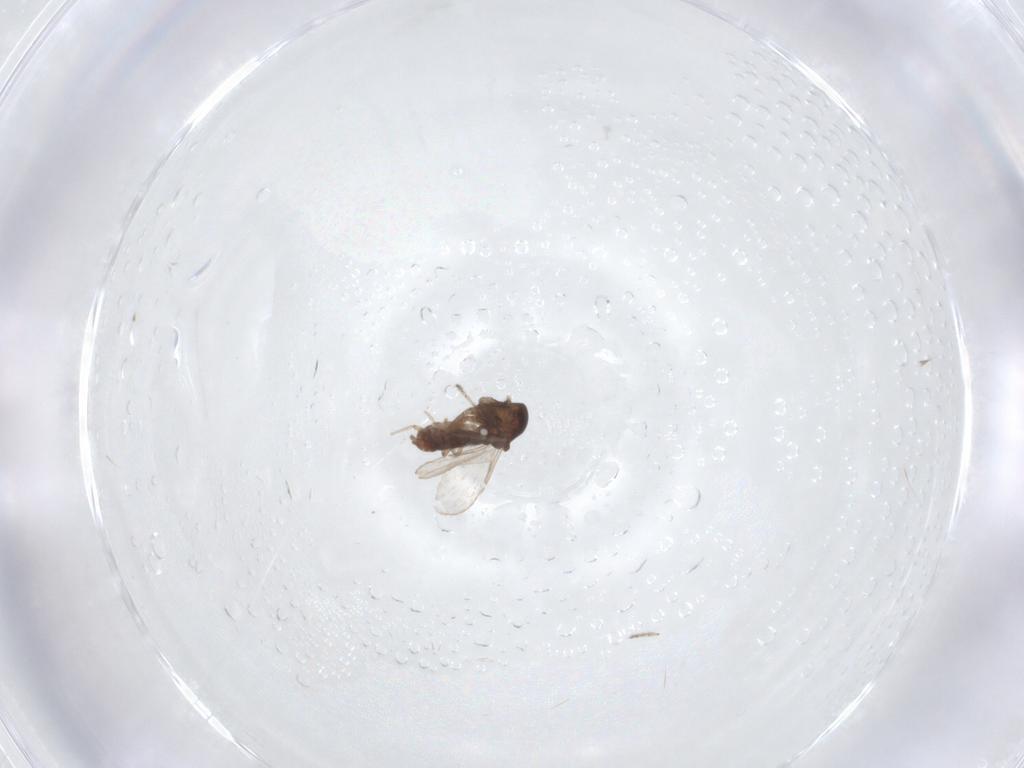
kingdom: Animalia
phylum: Arthropoda
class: Insecta
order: Diptera
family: Ceratopogonidae
